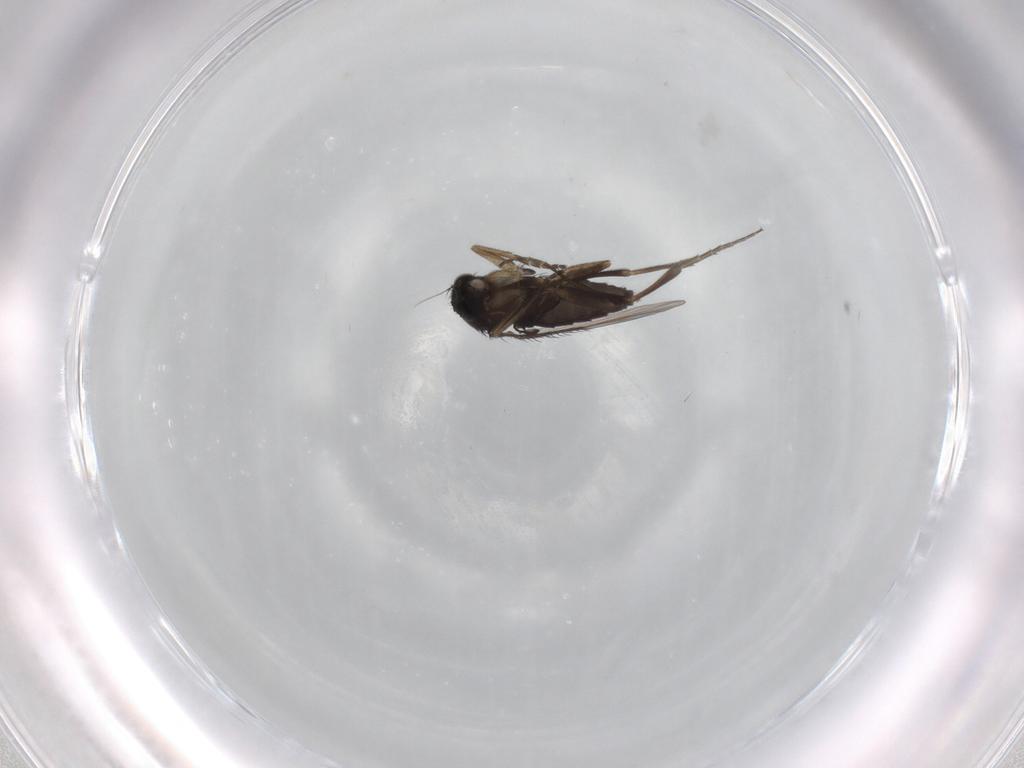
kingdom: Animalia
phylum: Arthropoda
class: Insecta
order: Diptera
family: Phoridae
